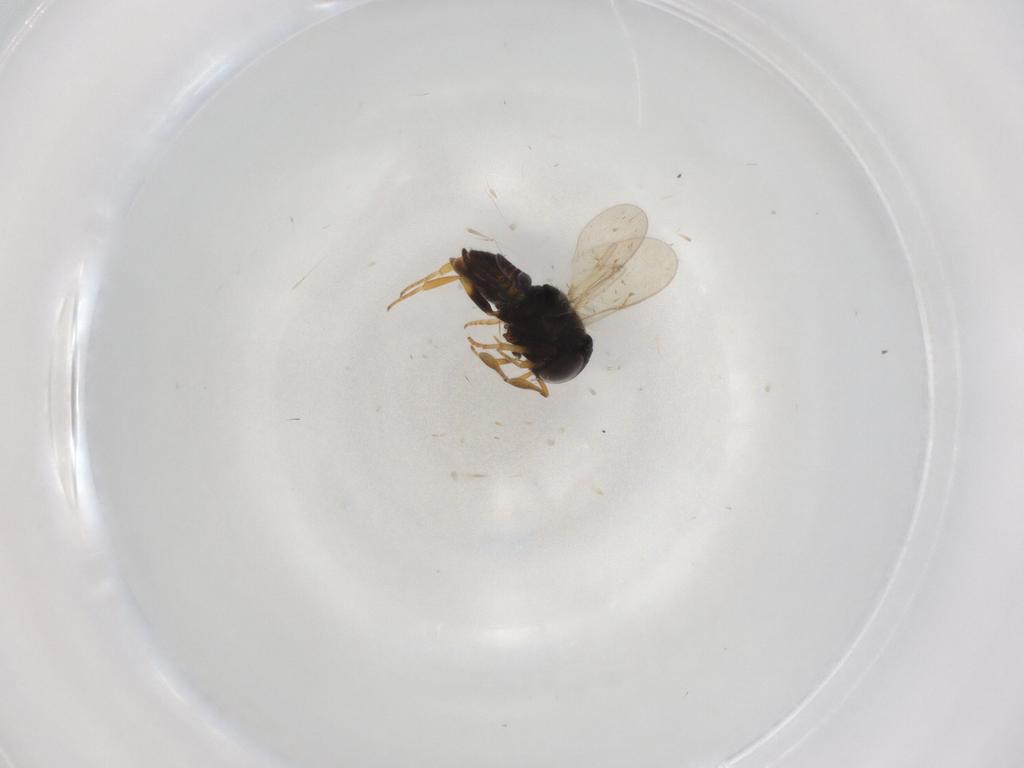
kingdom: Animalia
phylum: Arthropoda
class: Insecta
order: Hymenoptera
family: Encyrtidae
